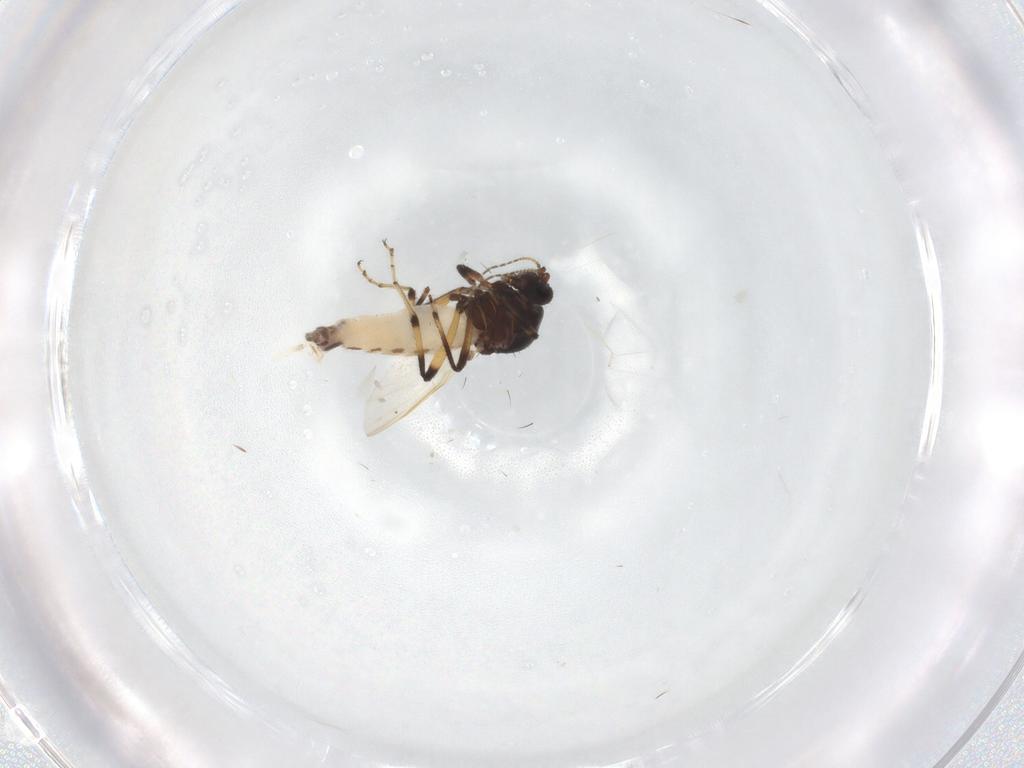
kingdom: Animalia
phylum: Arthropoda
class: Insecta
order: Diptera
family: Ceratopogonidae
